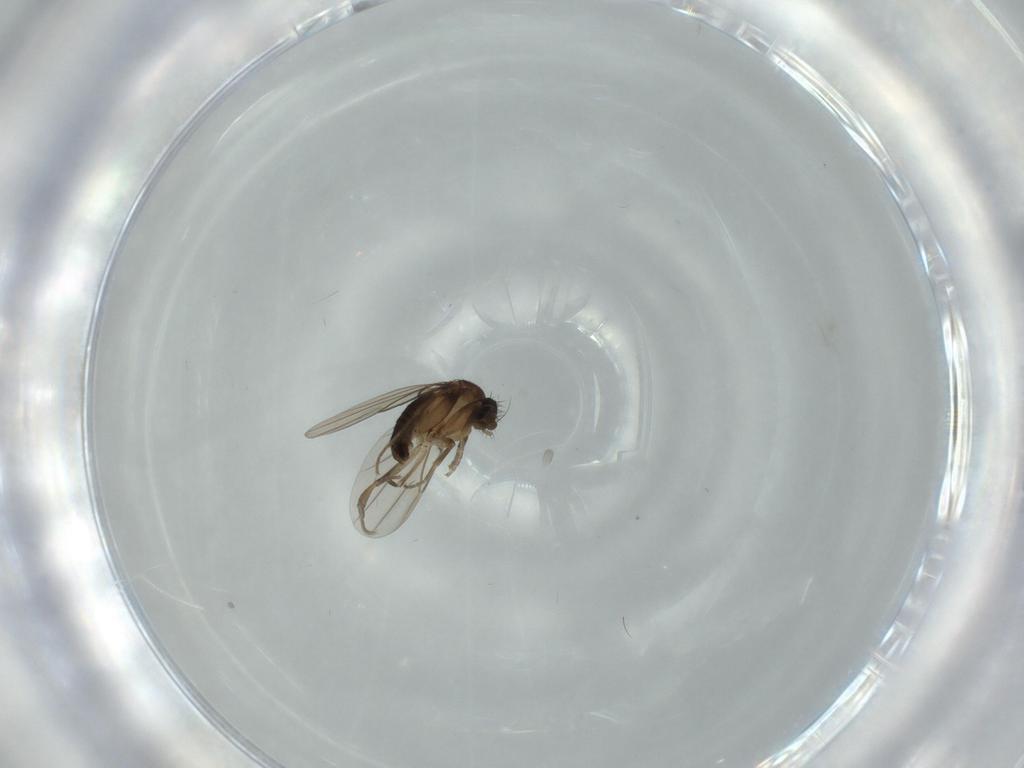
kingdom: Animalia
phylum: Arthropoda
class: Insecta
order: Diptera
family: Cecidomyiidae
